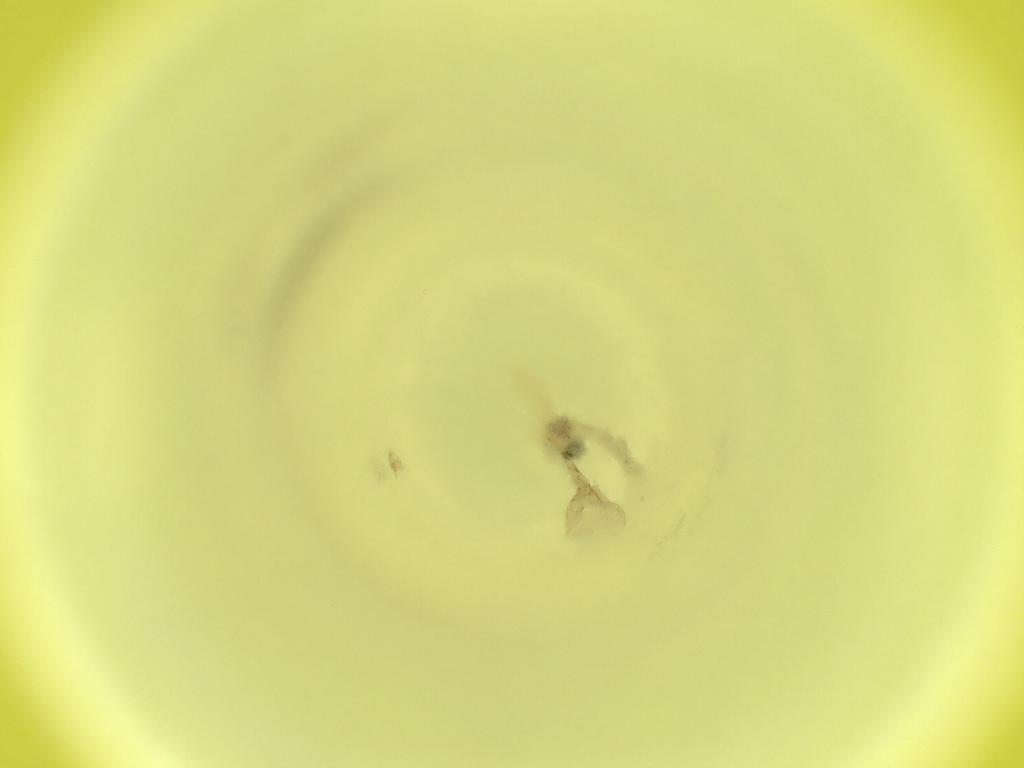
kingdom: Animalia
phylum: Arthropoda
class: Insecta
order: Diptera
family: Cecidomyiidae
